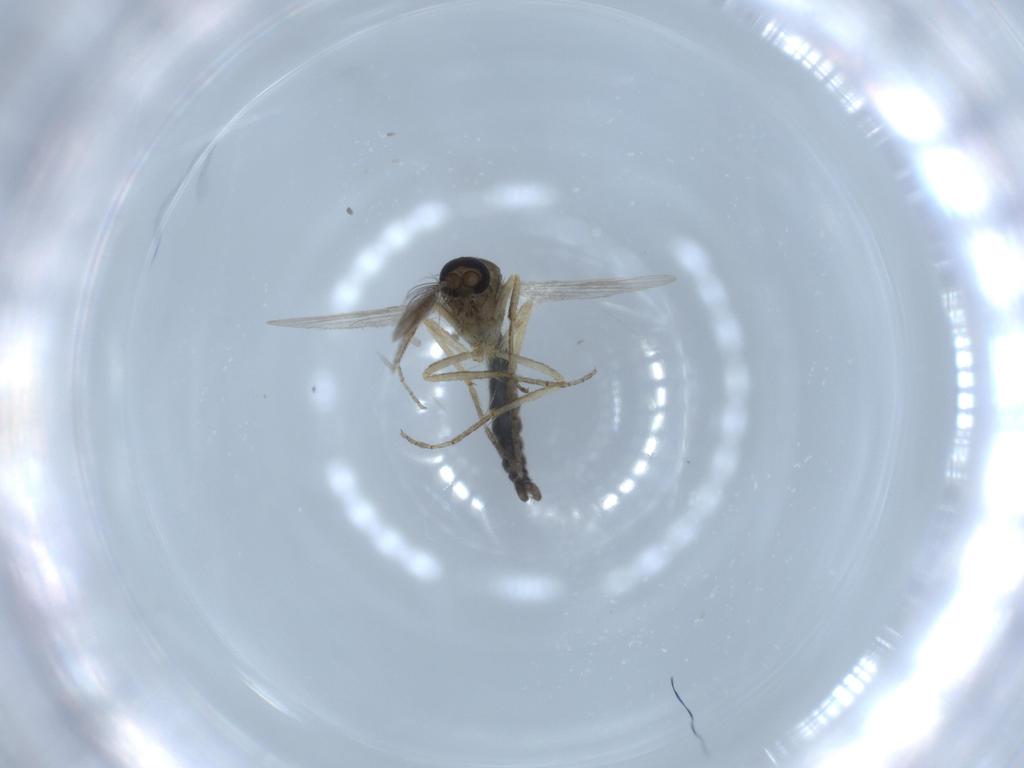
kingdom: Animalia
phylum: Arthropoda
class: Insecta
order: Diptera
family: Ceratopogonidae
